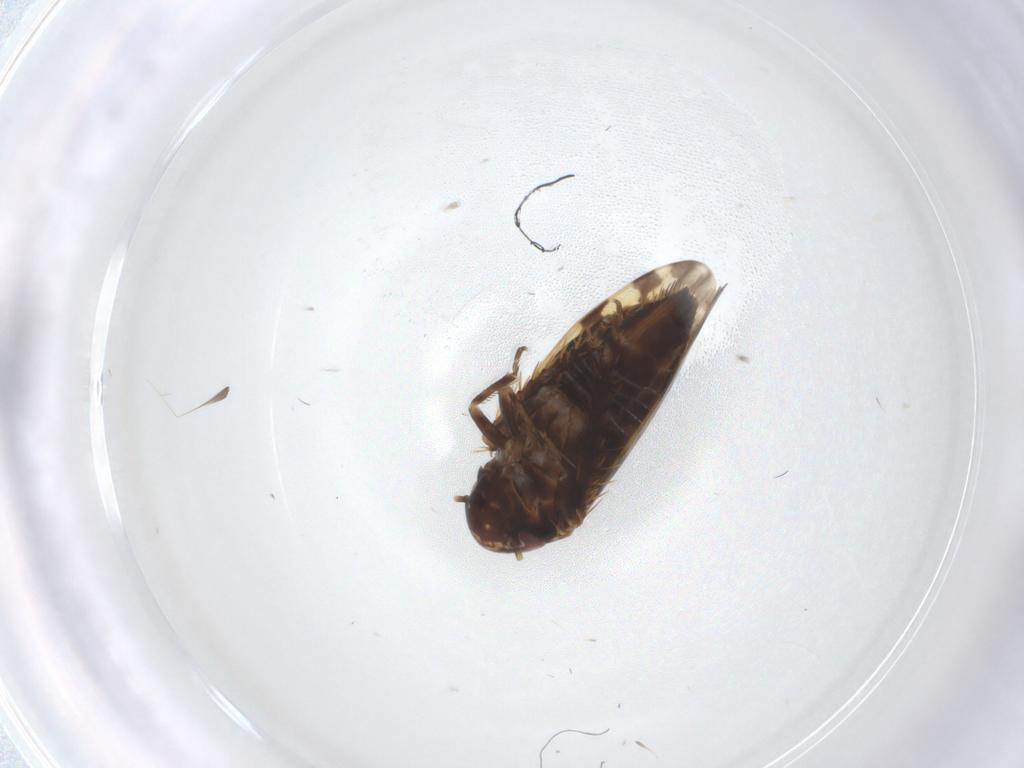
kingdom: Animalia
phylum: Arthropoda
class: Insecta
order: Hemiptera
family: Cicadellidae
